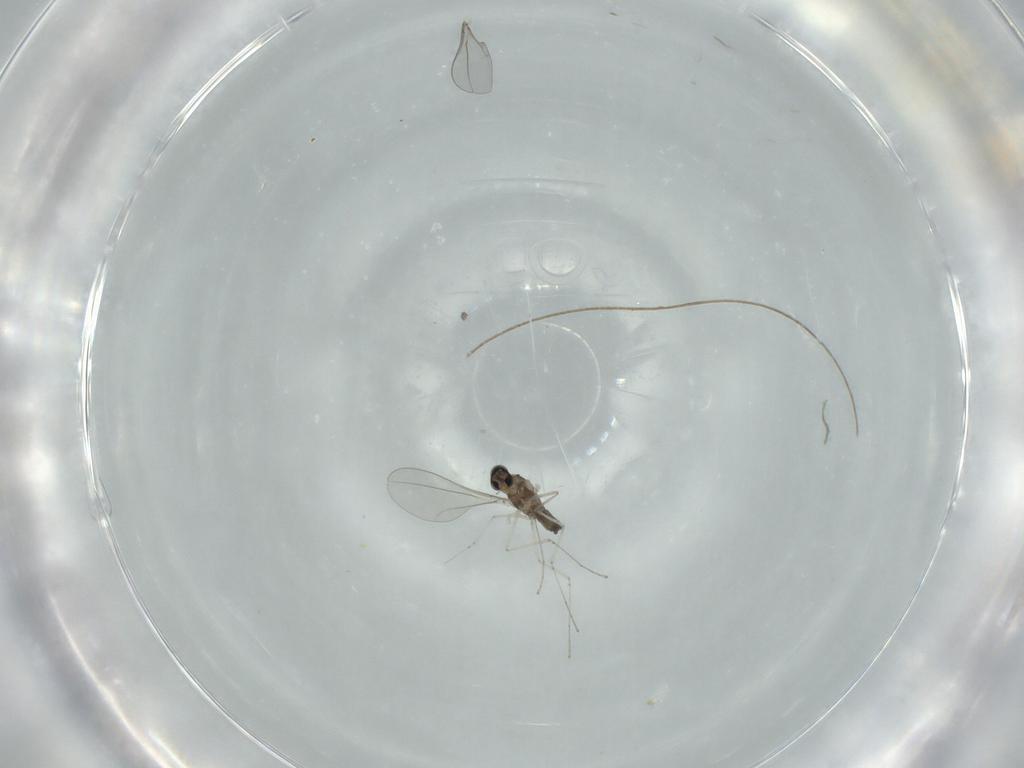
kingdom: Animalia
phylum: Arthropoda
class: Insecta
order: Diptera
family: Cecidomyiidae
